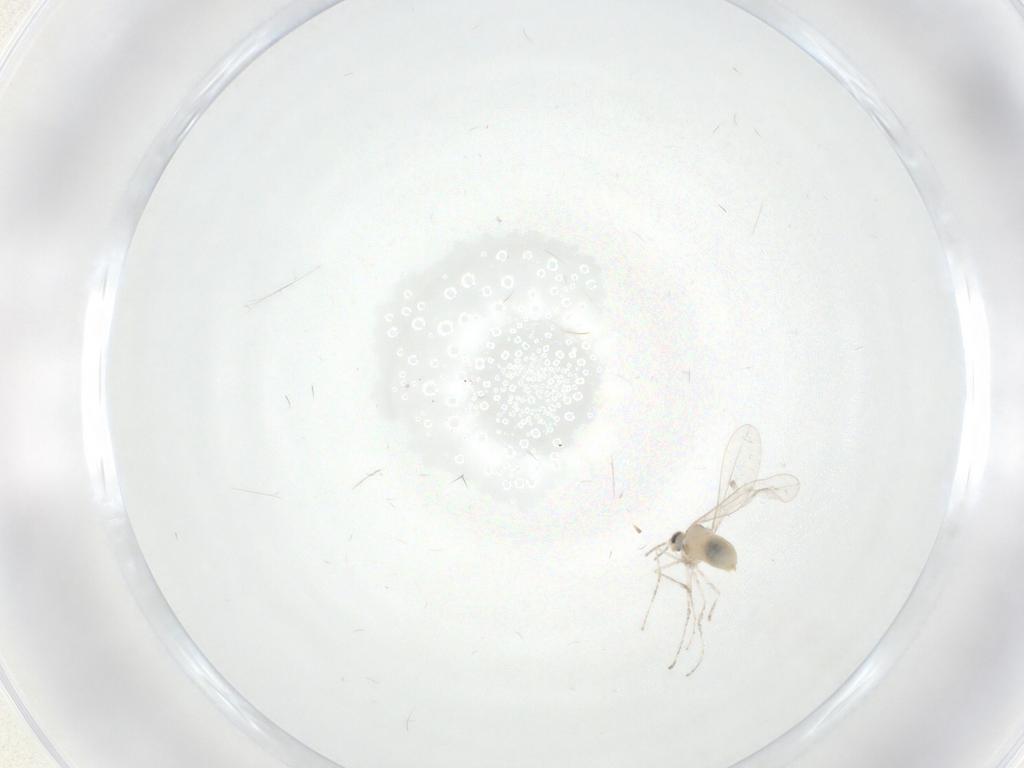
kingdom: Animalia
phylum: Arthropoda
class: Insecta
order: Diptera
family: Cecidomyiidae
